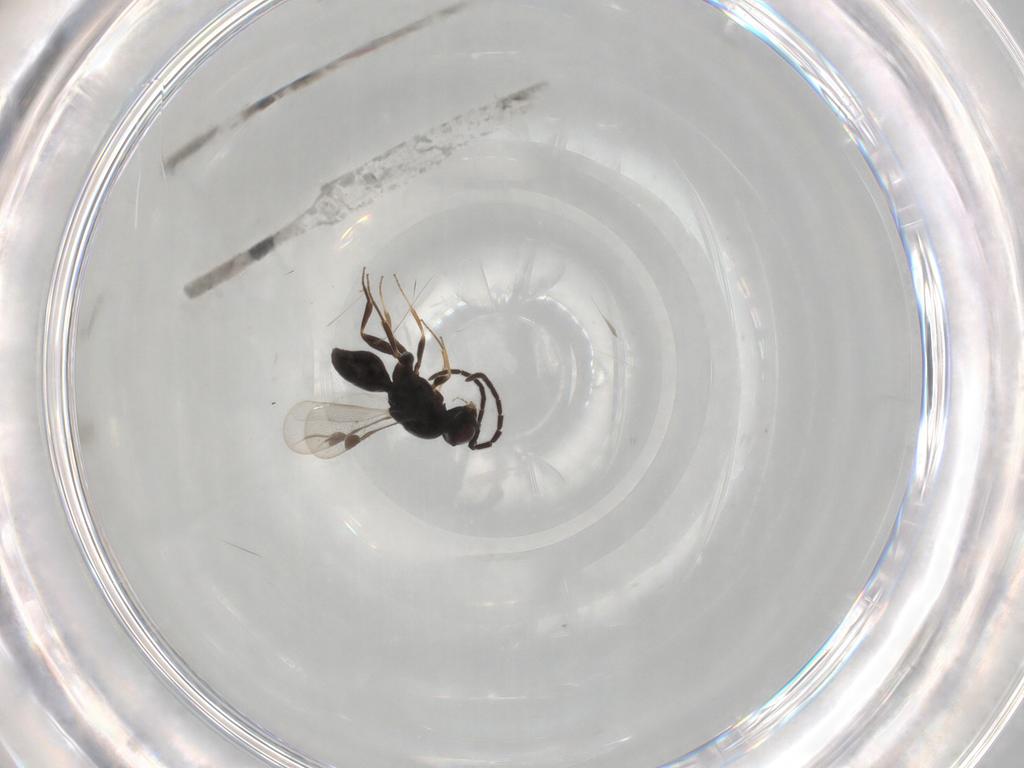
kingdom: Animalia
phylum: Arthropoda
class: Insecta
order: Hymenoptera
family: Megaspilidae
